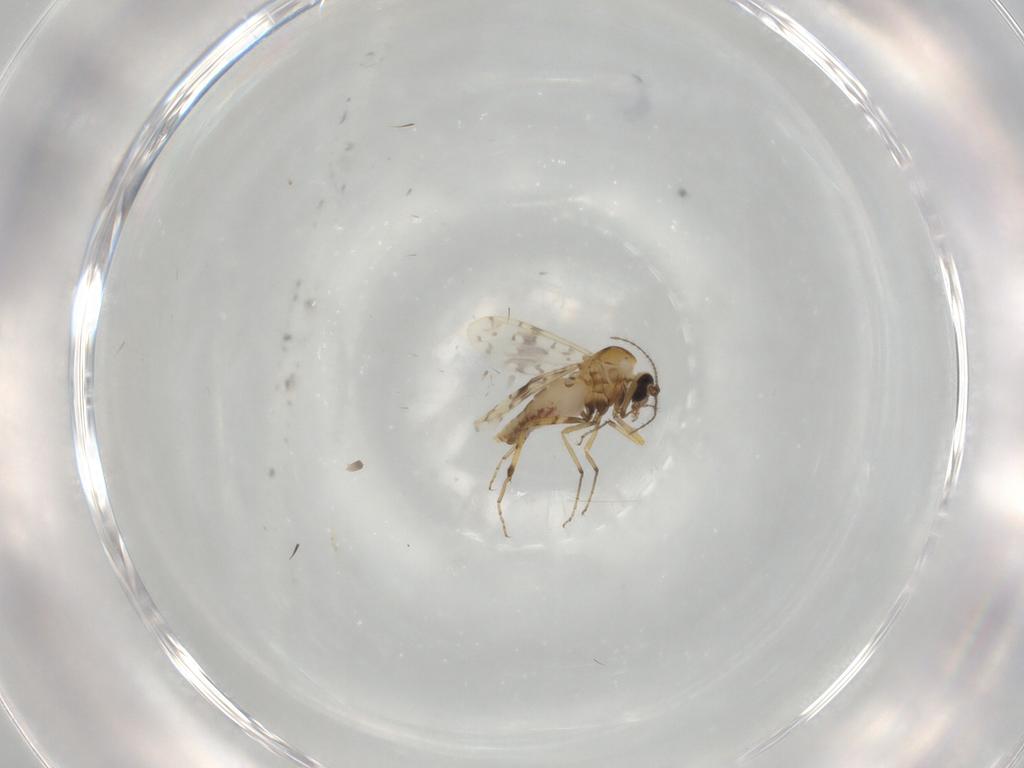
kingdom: Animalia
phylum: Arthropoda
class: Insecta
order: Diptera
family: Ceratopogonidae
